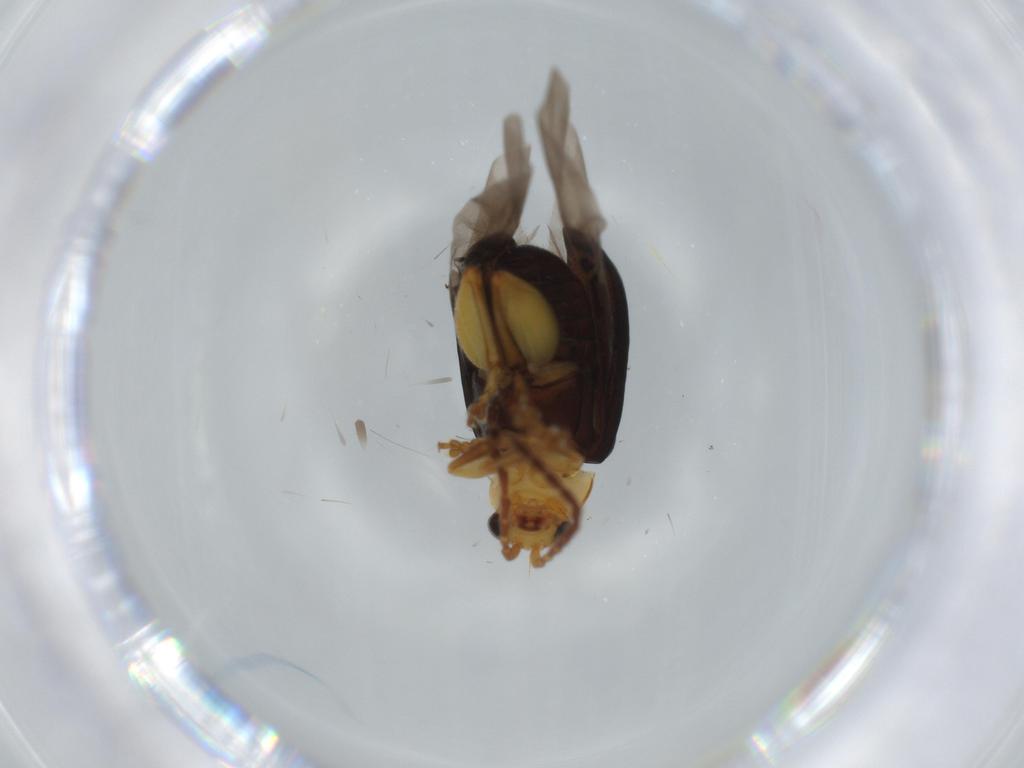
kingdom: Animalia
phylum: Arthropoda
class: Insecta
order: Coleoptera
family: Chrysomelidae
